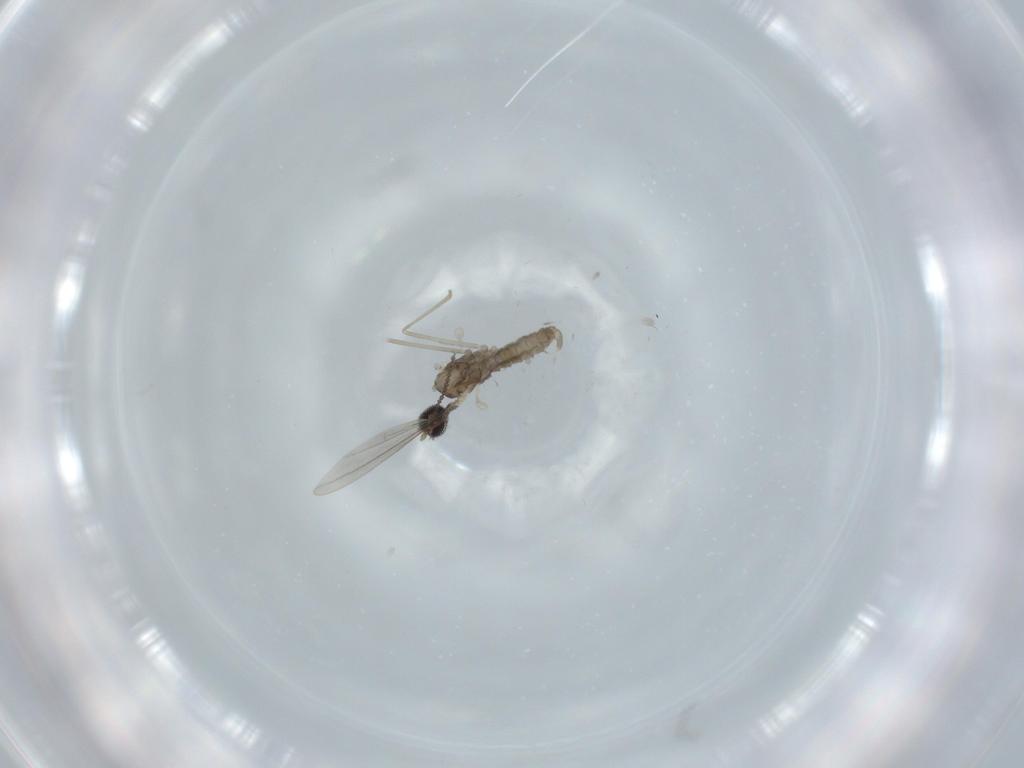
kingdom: Animalia
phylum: Arthropoda
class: Insecta
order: Diptera
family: Cecidomyiidae
